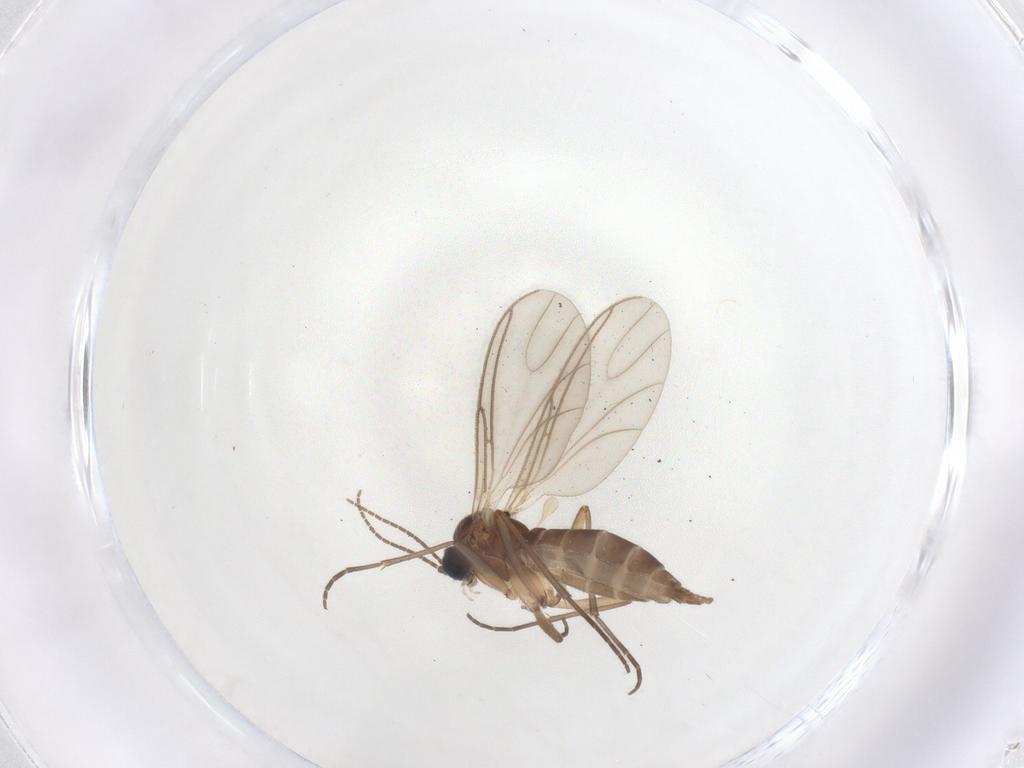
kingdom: Animalia
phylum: Arthropoda
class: Insecta
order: Diptera
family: Sciaridae
